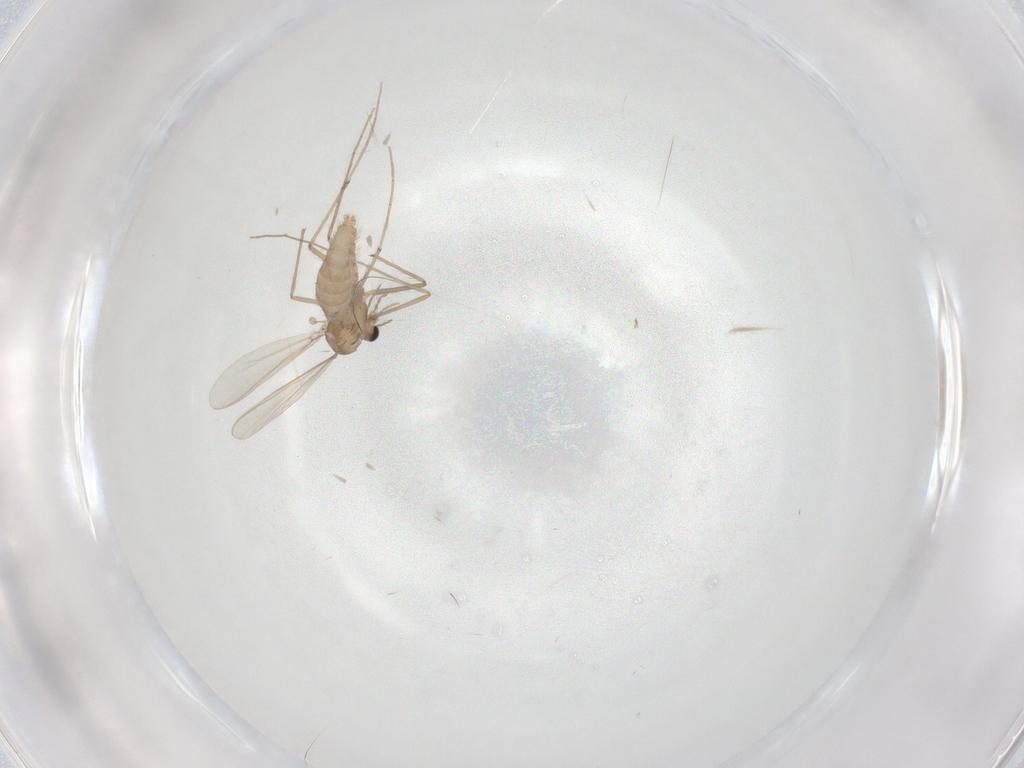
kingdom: Animalia
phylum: Arthropoda
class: Insecta
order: Diptera
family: Chironomidae
